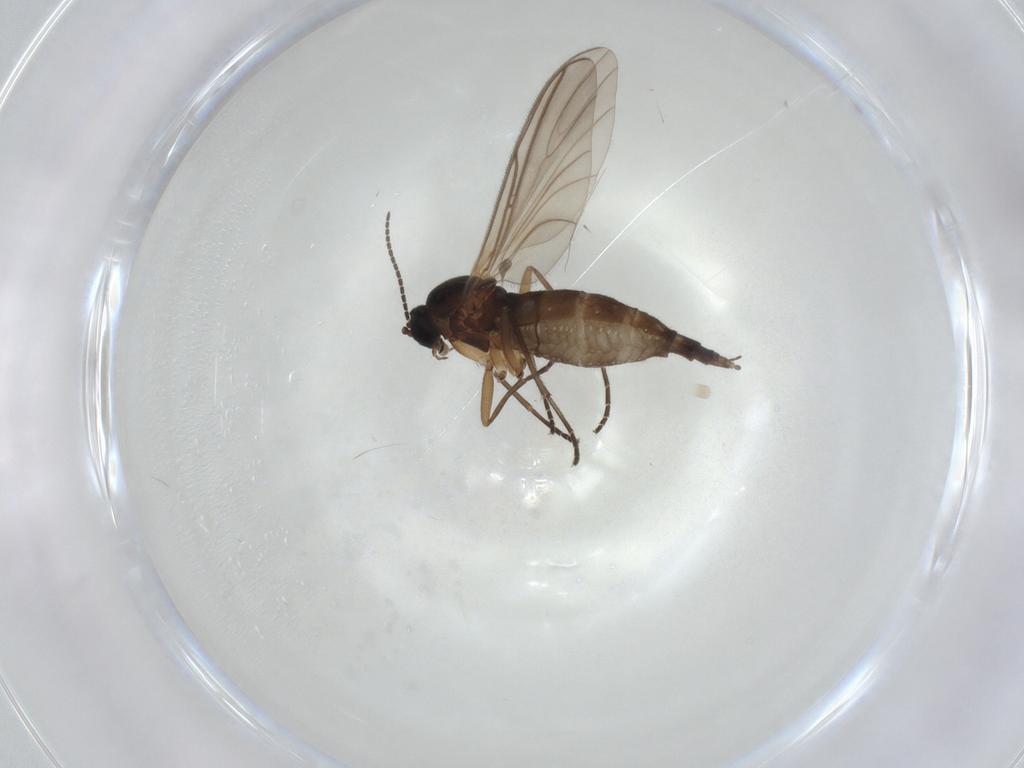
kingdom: Animalia
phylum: Arthropoda
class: Insecta
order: Diptera
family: Sciaridae
